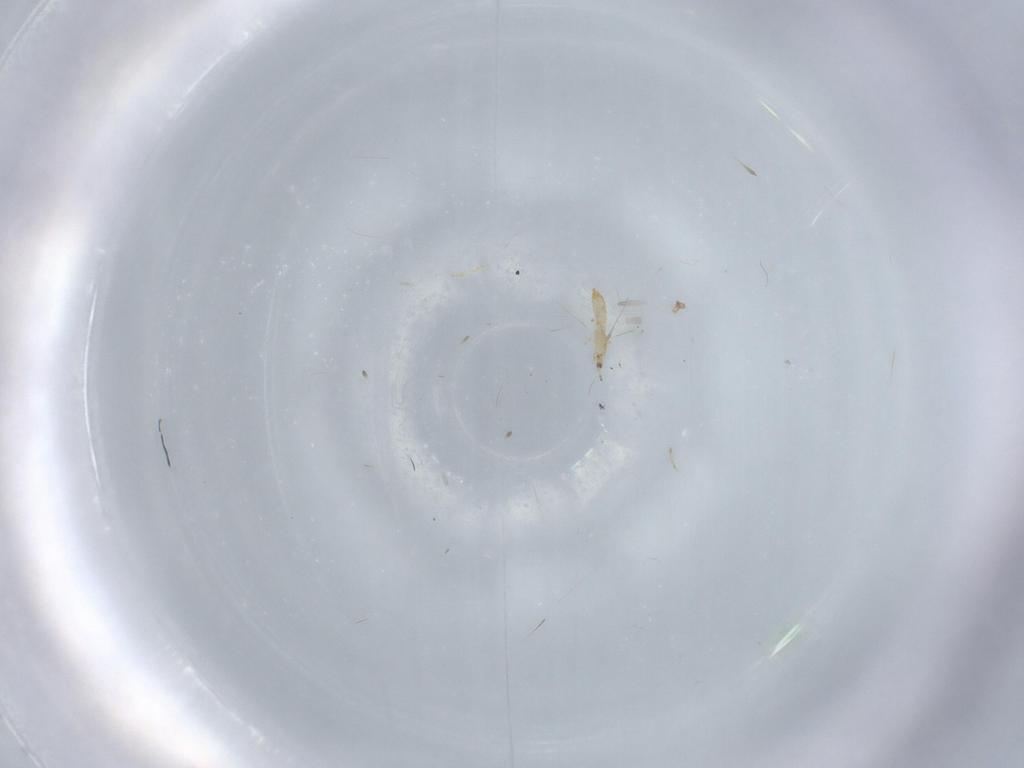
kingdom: Animalia
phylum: Arthropoda
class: Insecta
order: Thysanoptera
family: Phlaeothripidae
